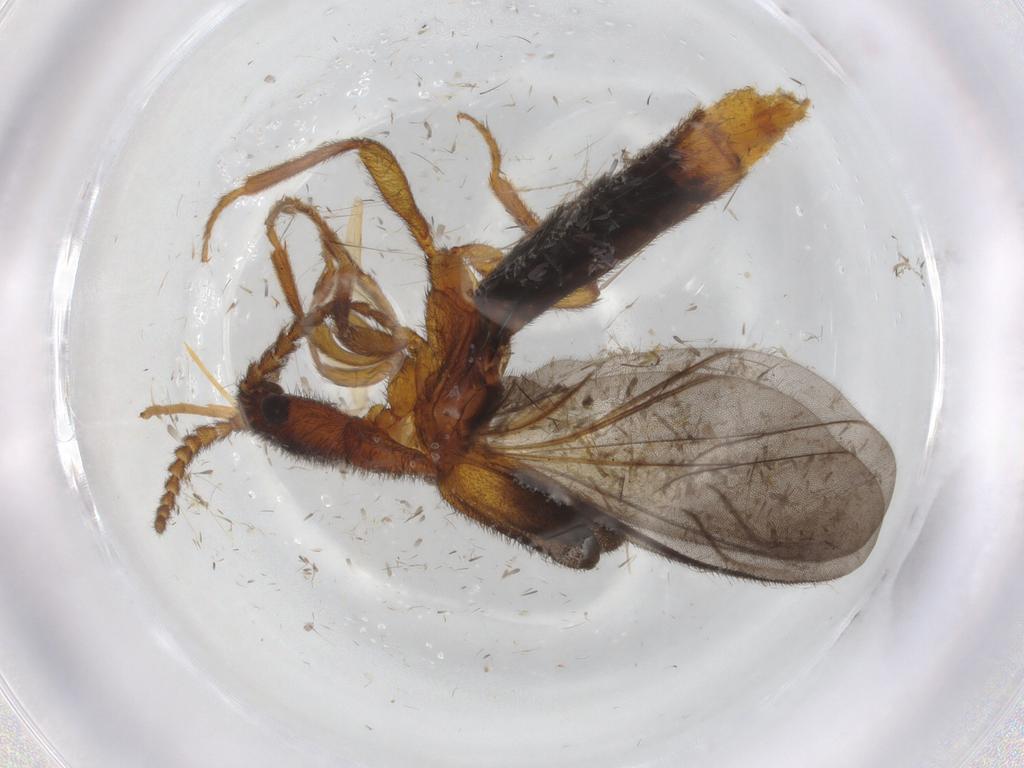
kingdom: Animalia
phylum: Arthropoda
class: Insecta
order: Coleoptera
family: Omethidae
